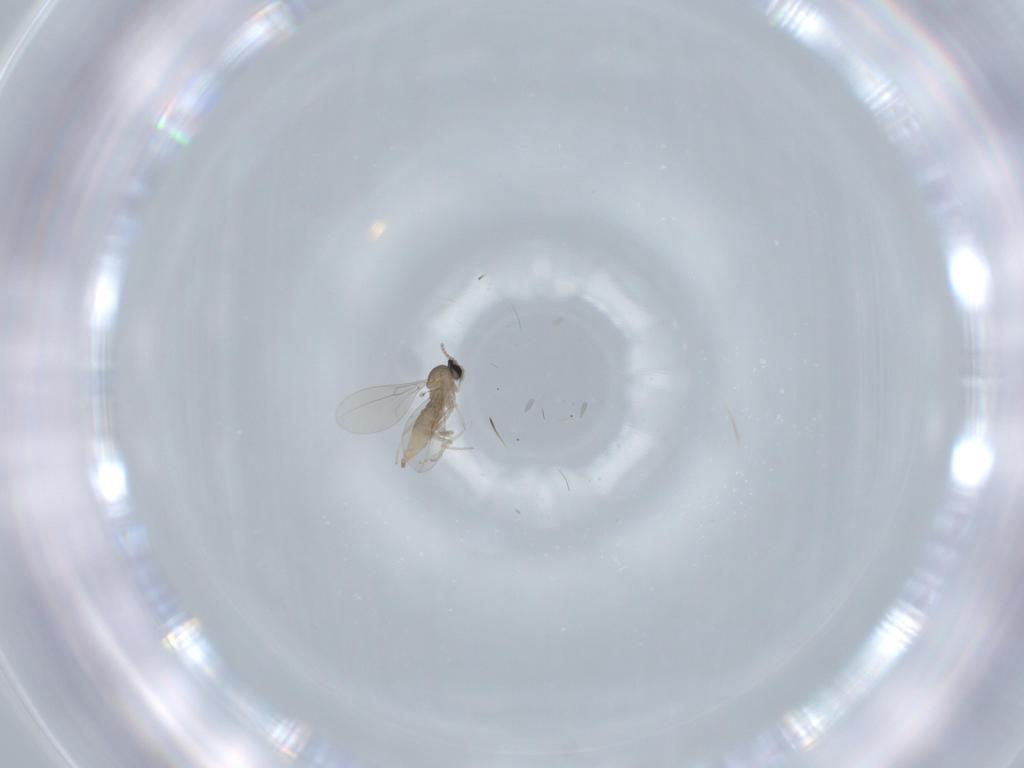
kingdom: Animalia
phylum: Arthropoda
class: Insecta
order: Diptera
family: Cecidomyiidae
